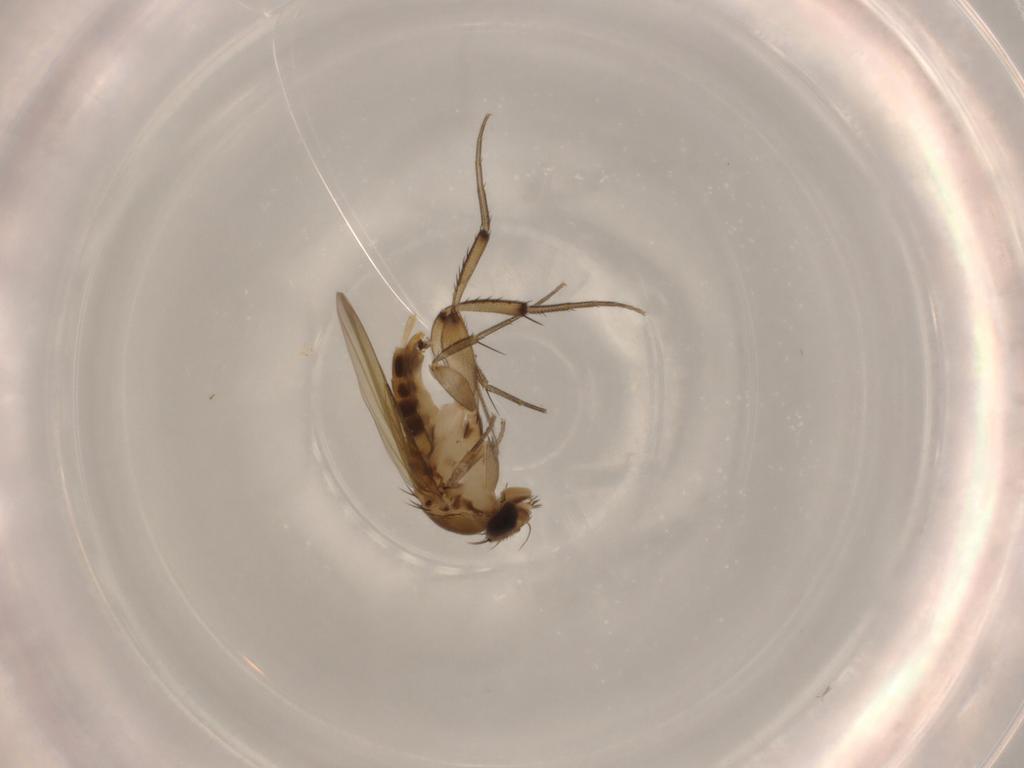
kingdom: Animalia
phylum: Arthropoda
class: Insecta
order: Diptera
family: Phoridae
